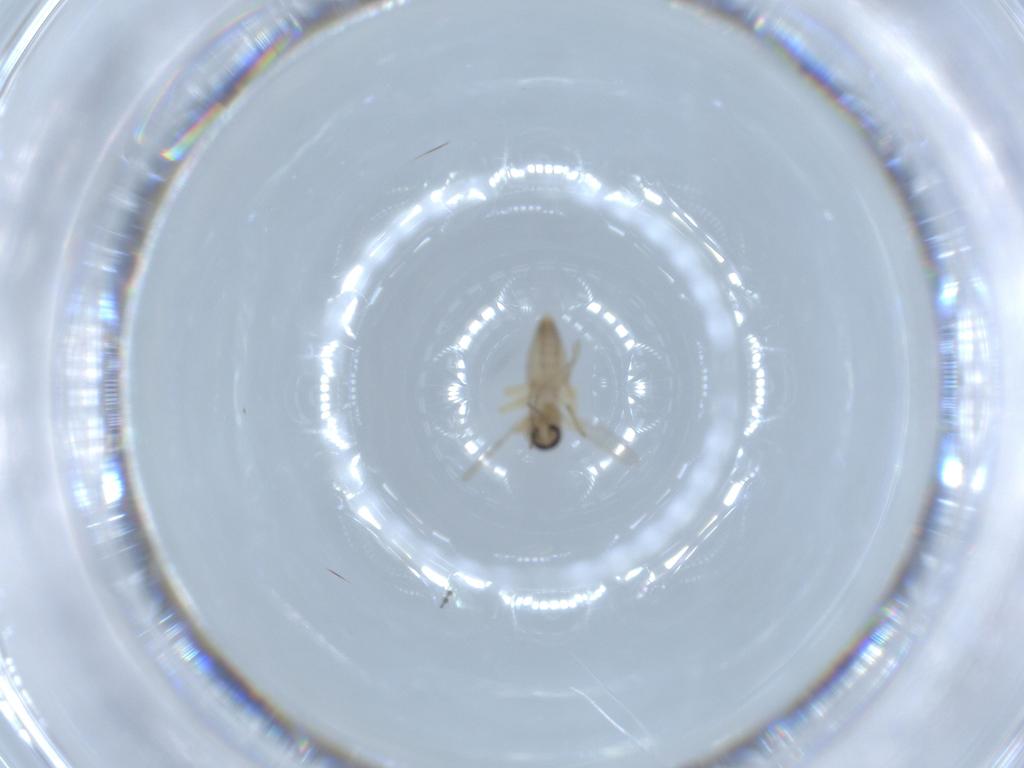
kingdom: Animalia
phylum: Arthropoda
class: Insecta
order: Diptera
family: Ceratopogonidae
